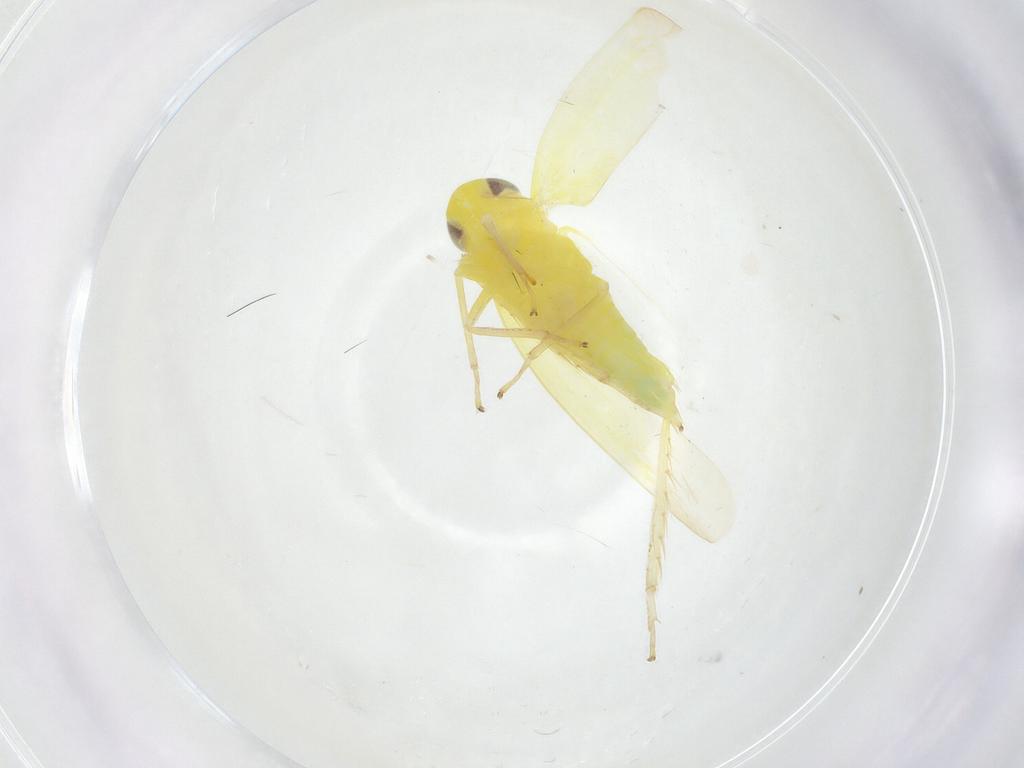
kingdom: Animalia
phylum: Arthropoda
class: Insecta
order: Hemiptera
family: Cicadellidae
